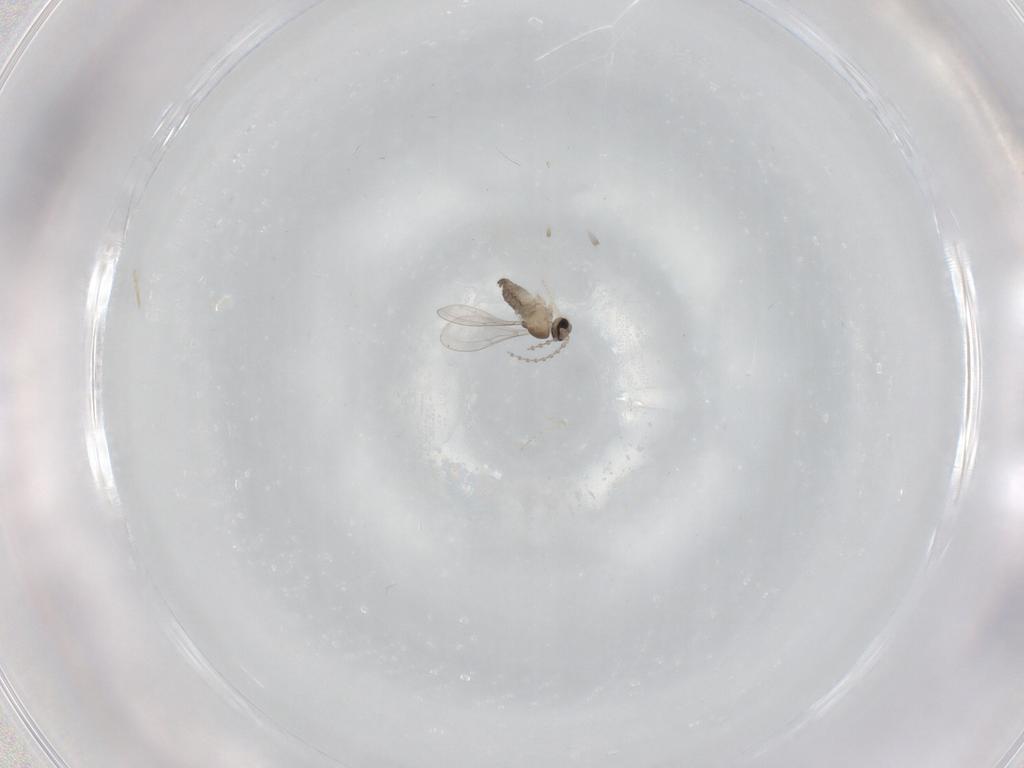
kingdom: Animalia
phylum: Arthropoda
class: Insecta
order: Diptera
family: Cecidomyiidae
